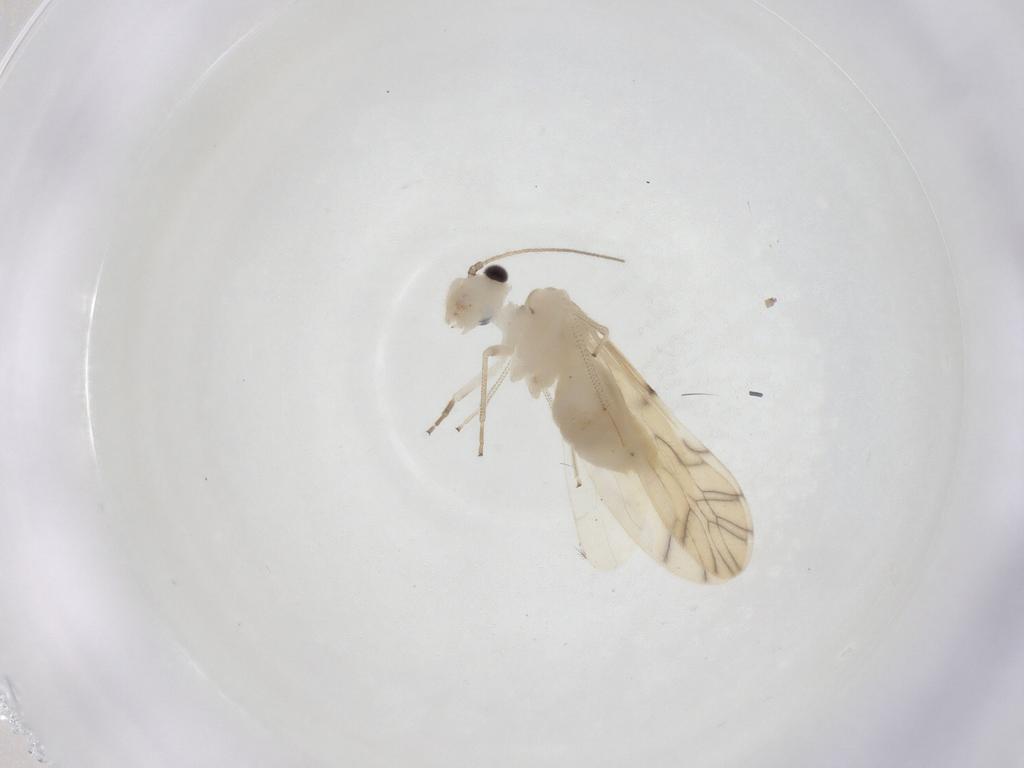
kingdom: Animalia
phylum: Arthropoda
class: Insecta
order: Psocodea
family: Caeciliusidae
